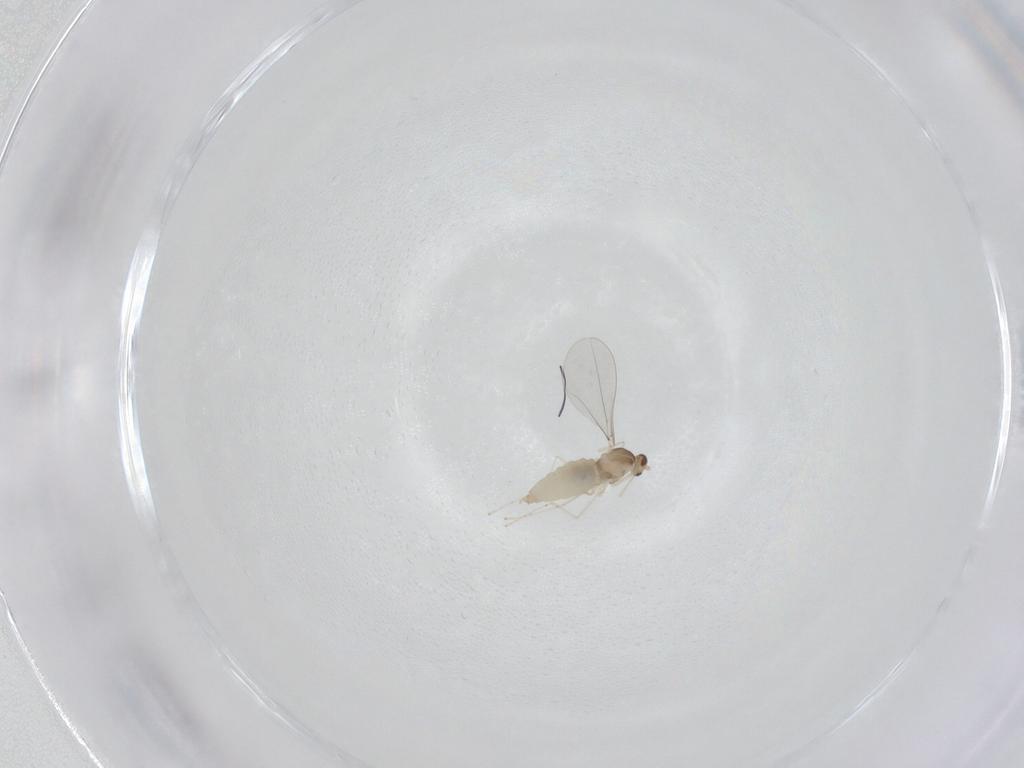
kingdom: Animalia
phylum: Arthropoda
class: Insecta
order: Diptera
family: Cecidomyiidae
